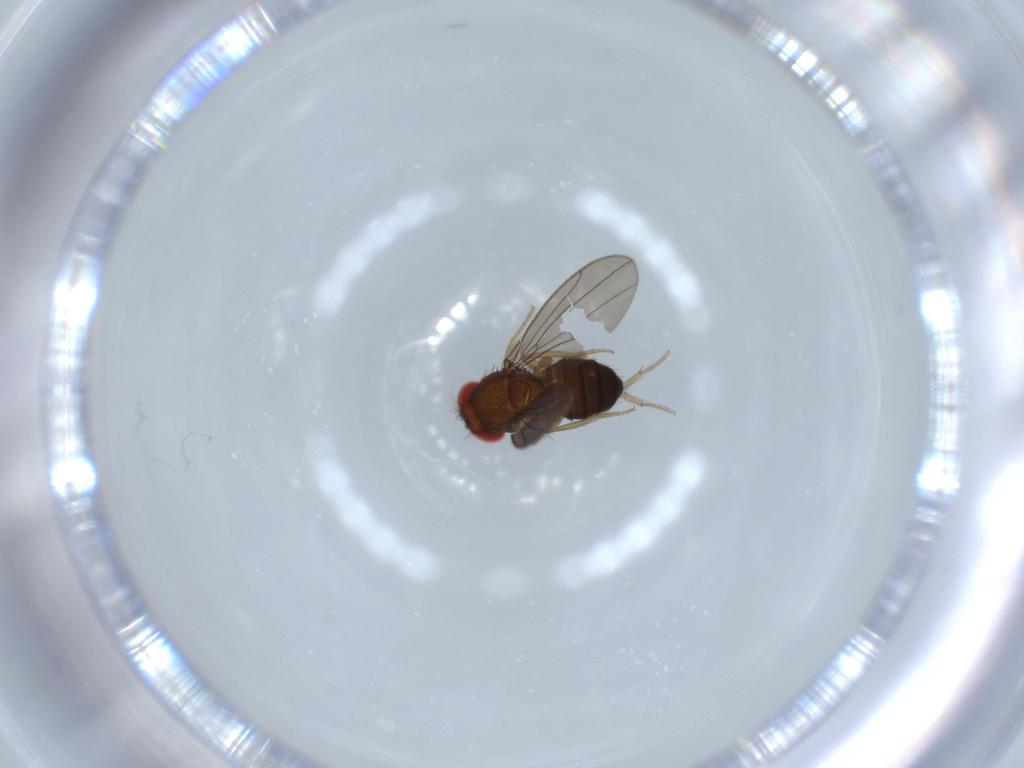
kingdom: Animalia
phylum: Arthropoda
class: Insecta
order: Diptera
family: Drosophilidae
